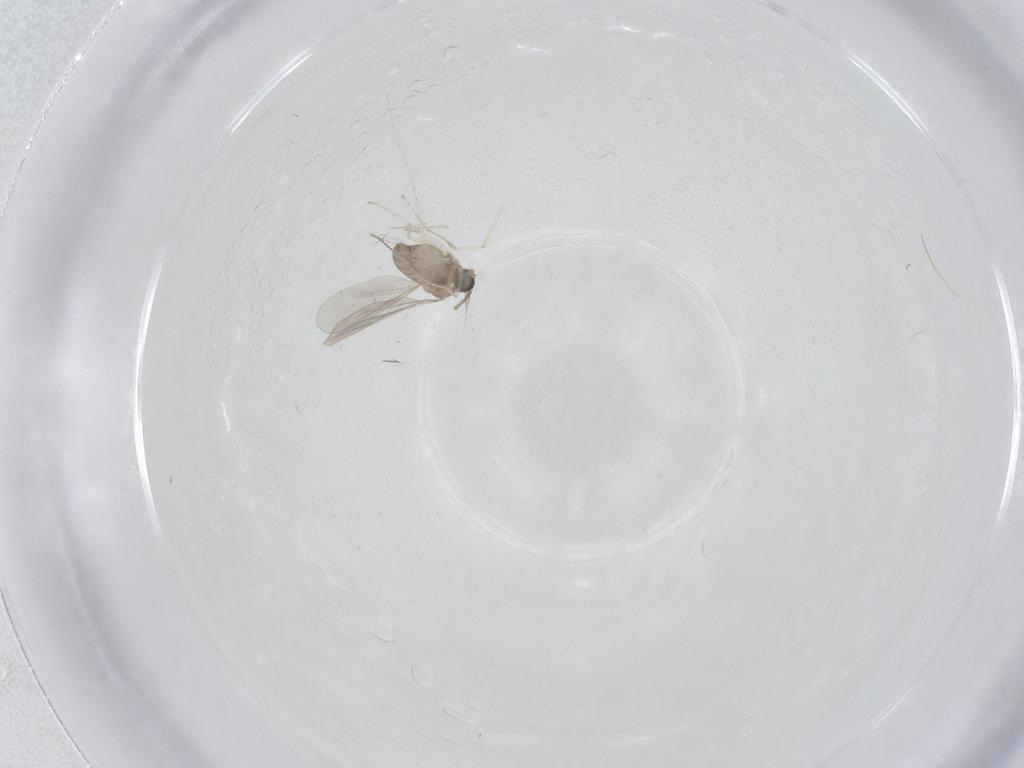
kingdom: Animalia
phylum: Arthropoda
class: Insecta
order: Diptera
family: Cecidomyiidae
